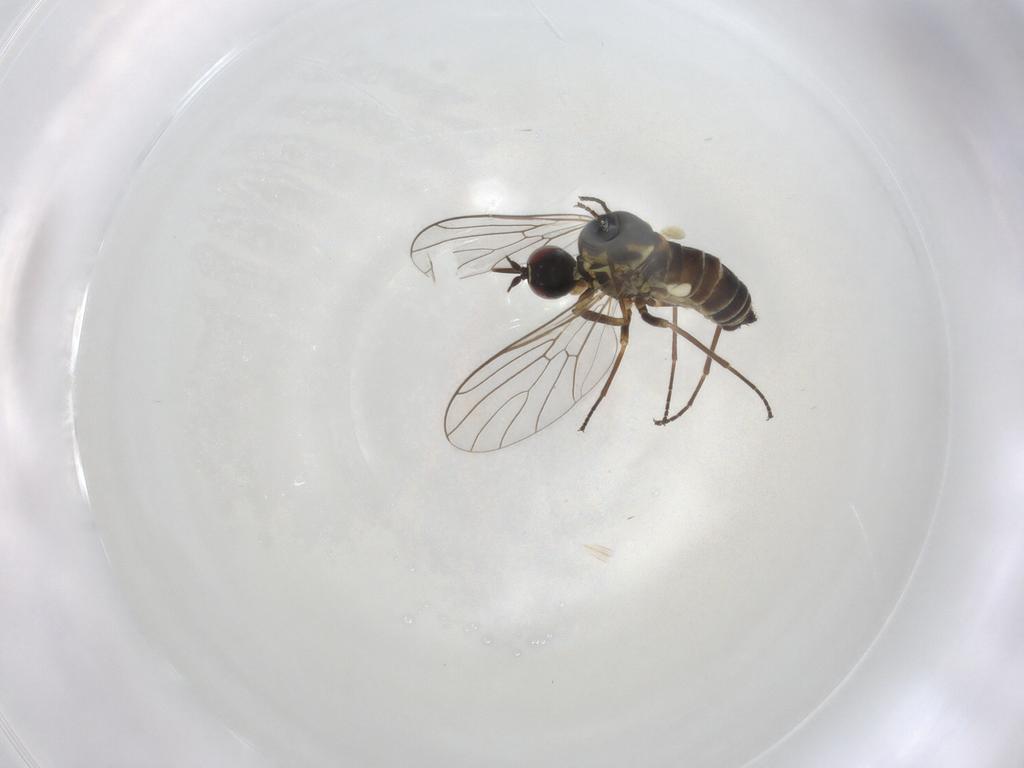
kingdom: Animalia
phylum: Arthropoda
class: Insecta
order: Diptera
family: Bombyliidae
